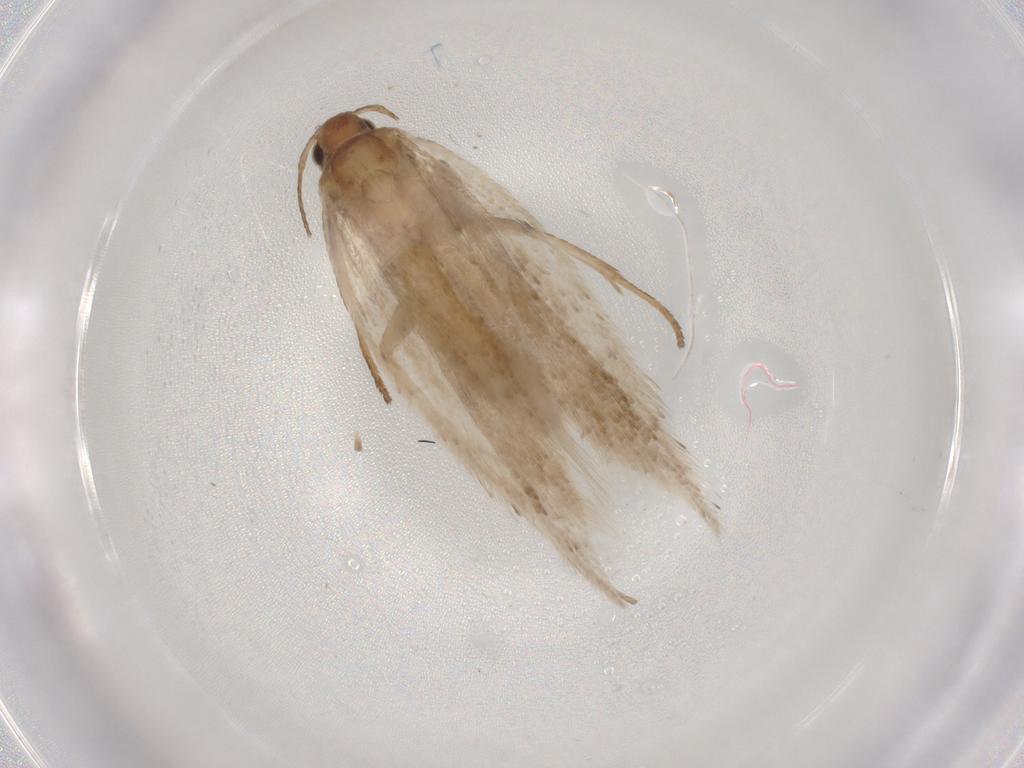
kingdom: Animalia
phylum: Arthropoda
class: Insecta
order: Lepidoptera
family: Gelechiidae
